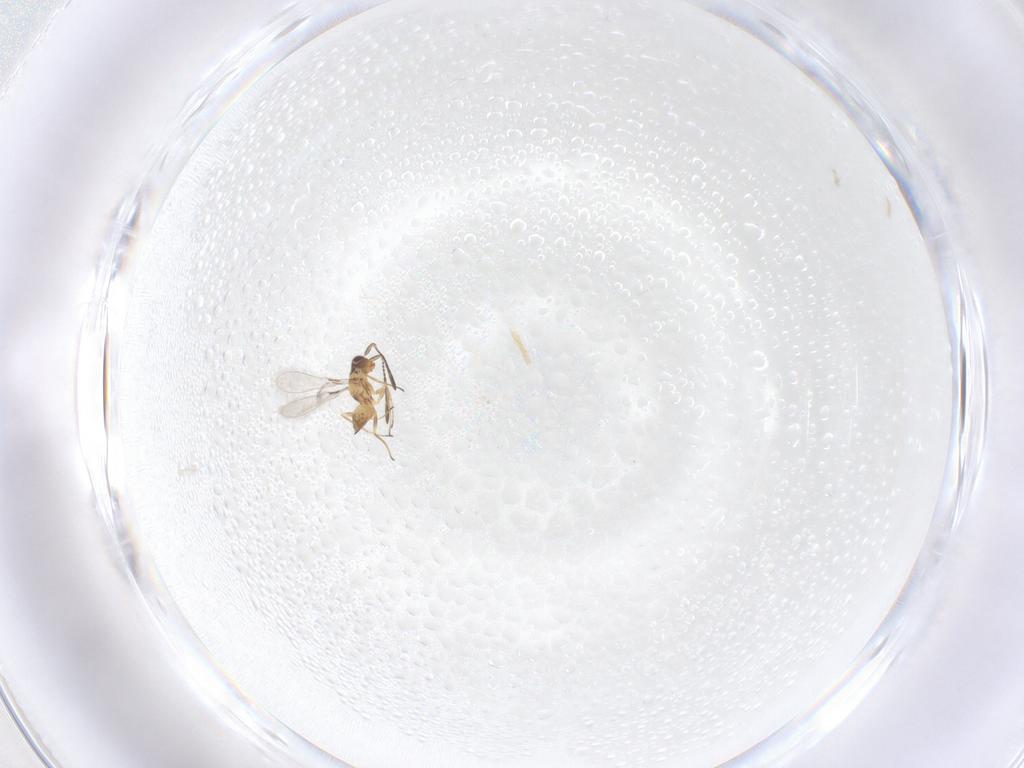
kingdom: Animalia
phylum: Arthropoda
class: Insecta
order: Hymenoptera
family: Mymaridae
